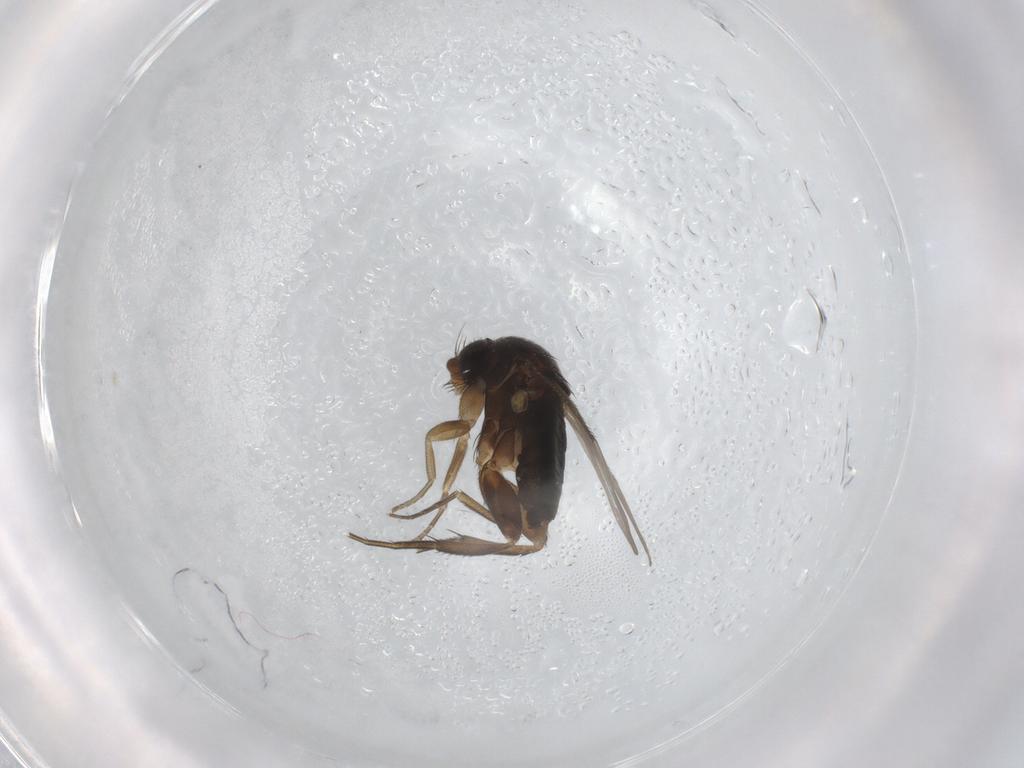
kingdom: Animalia
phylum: Arthropoda
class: Insecta
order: Diptera
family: Phoridae
